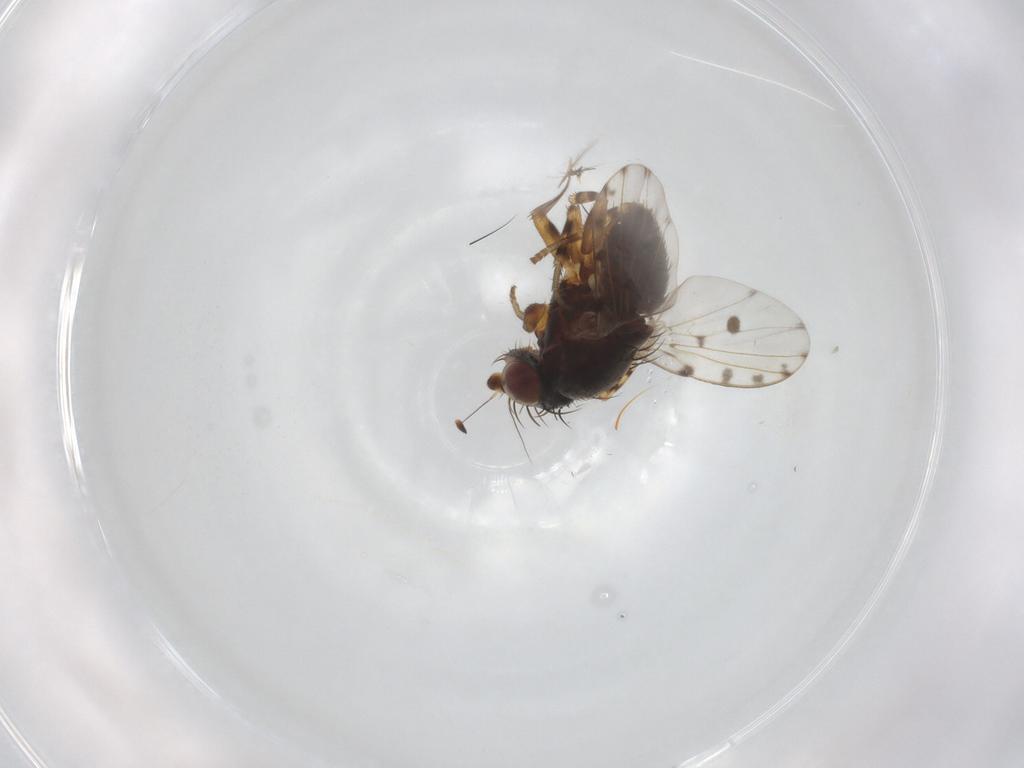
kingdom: Animalia
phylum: Arthropoda
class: Insecta
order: Diptera
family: Odiniidae
